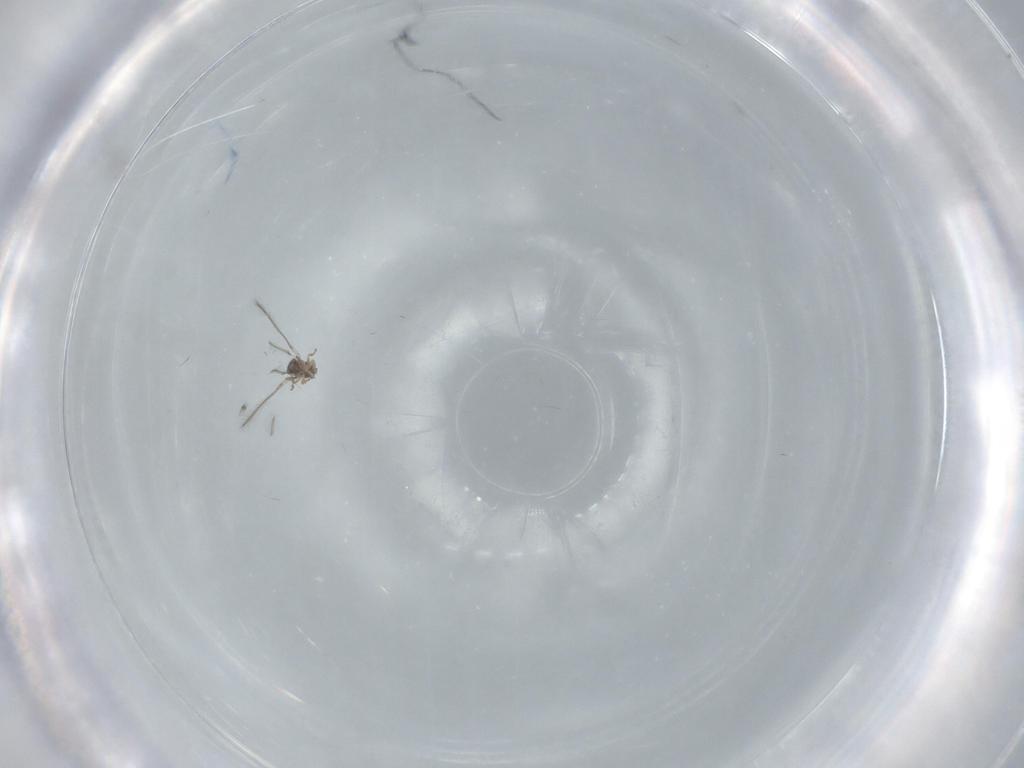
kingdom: Animalia
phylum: Arthropoda
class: Insecta
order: Hymenoptera
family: Mymaridae
